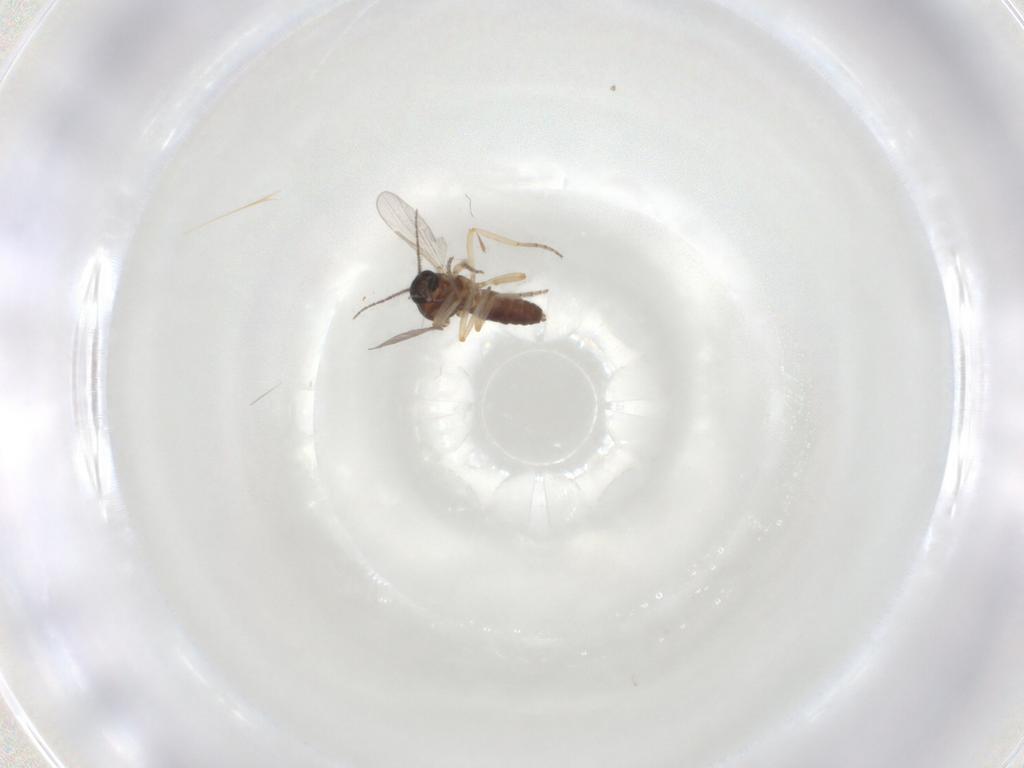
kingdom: Animalia
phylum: Arthropoda
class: Insecta
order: Diptera
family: Ceratopogonidae
